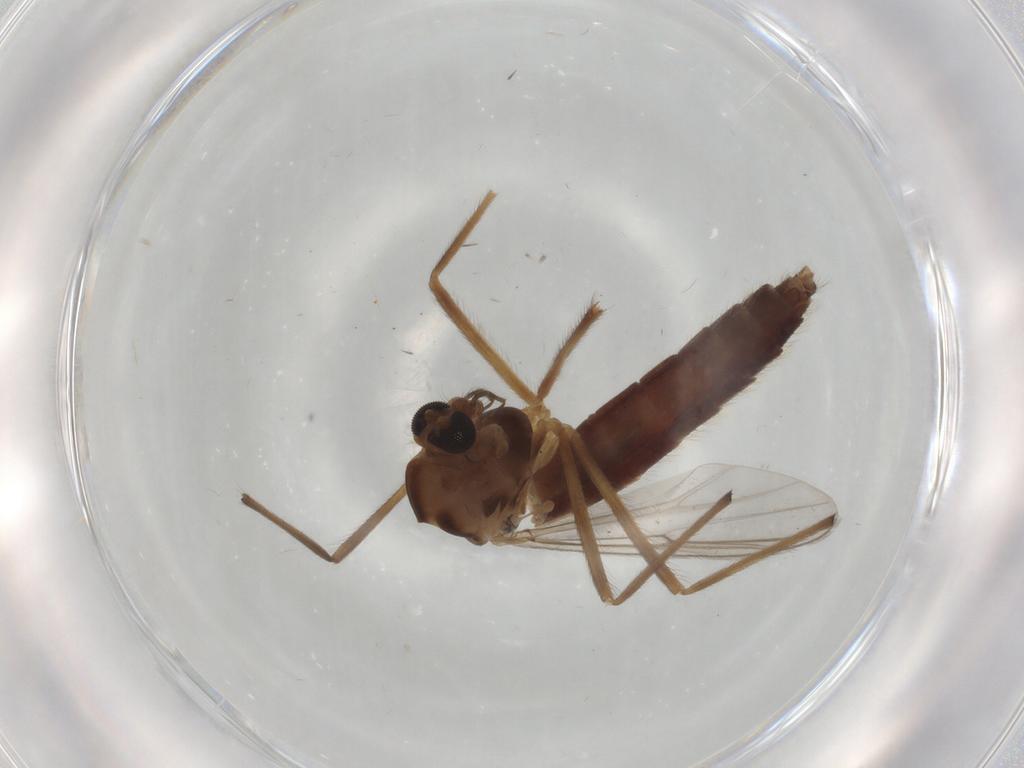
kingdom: Animalia
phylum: Arthropoda
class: Insecta
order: Diptera
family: Chironomidae
